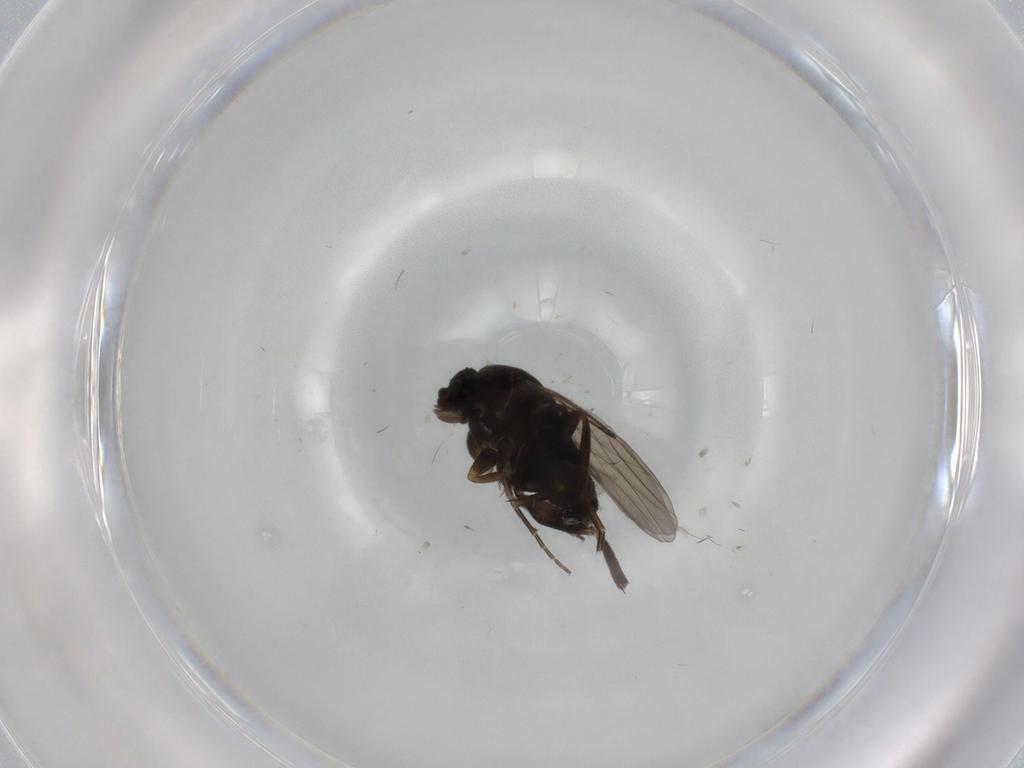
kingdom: Animalia
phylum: Arthropoda
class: Insecta
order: Diptera
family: Phoridae
